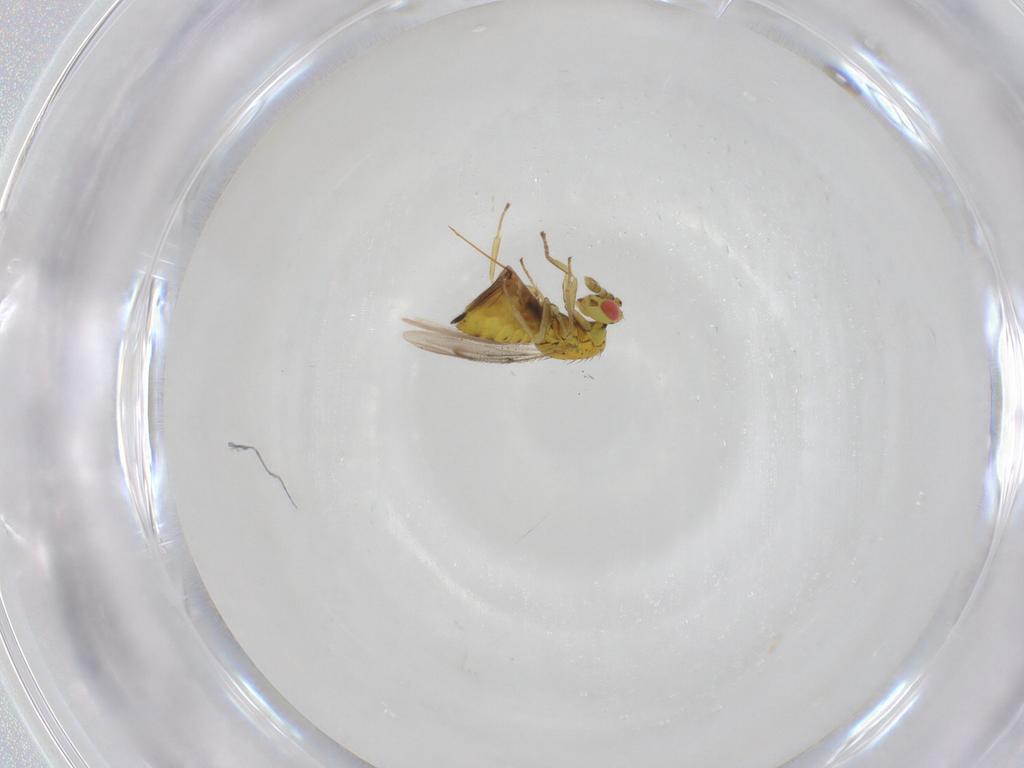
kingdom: Animalia
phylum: Arthropoda
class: Insecta
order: Hymenoptera
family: Eulophidae
